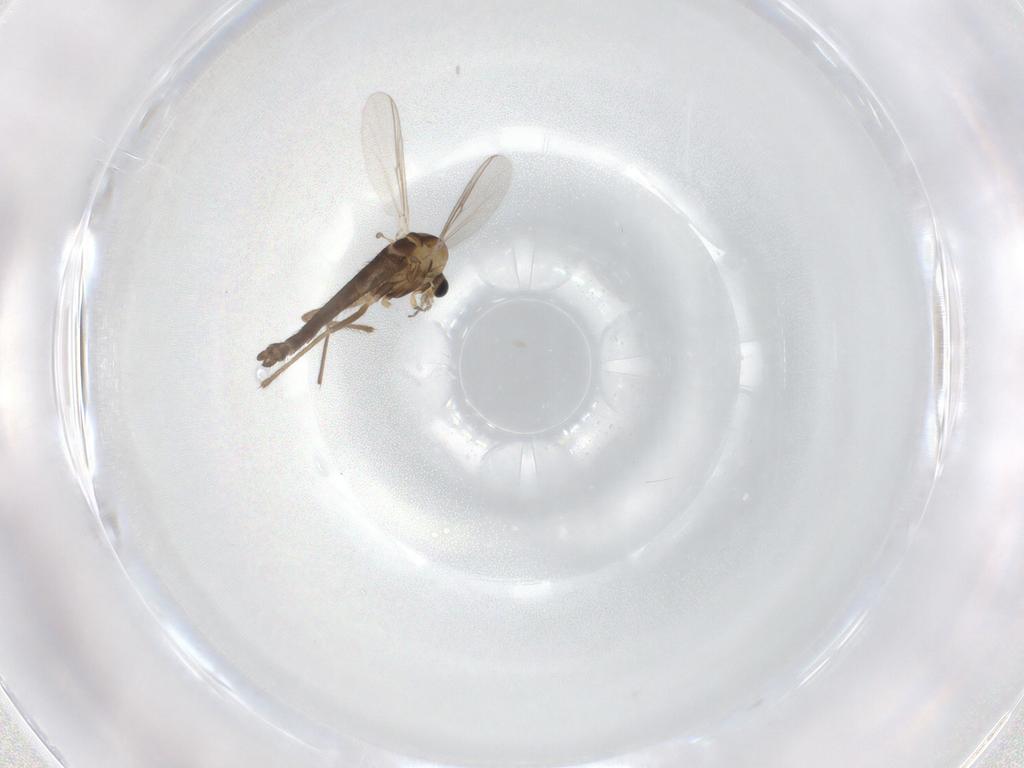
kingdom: Animalia
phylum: Arthropoda
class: Insecta
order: Diptera
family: Chironomidae
